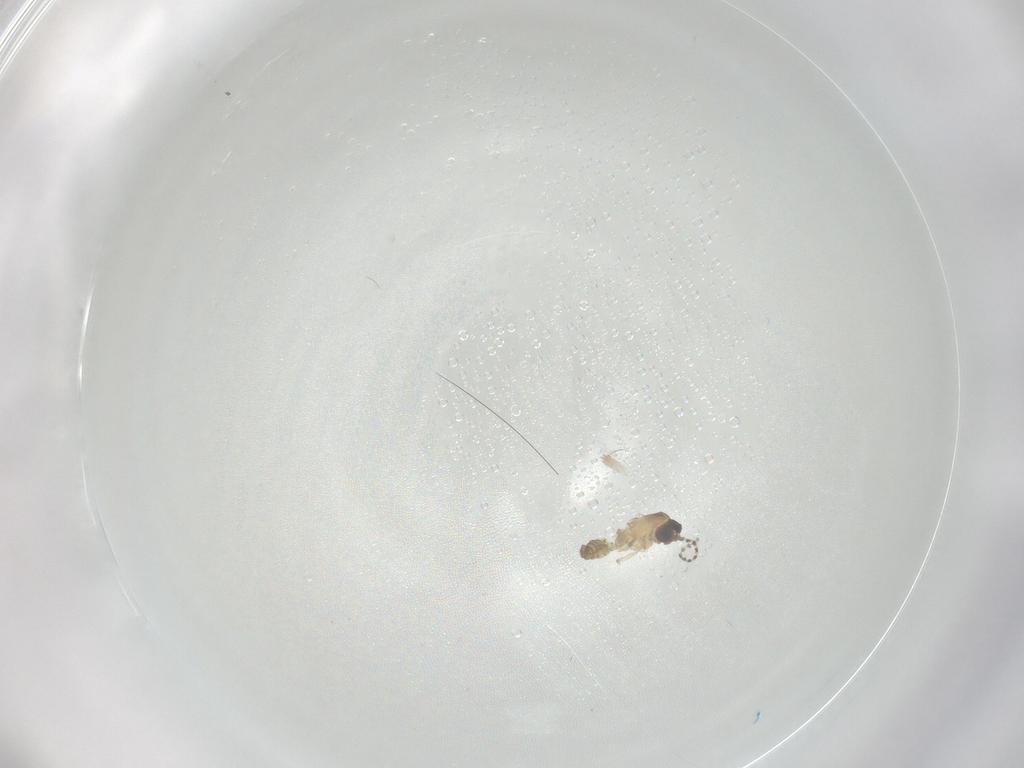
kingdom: Animalia
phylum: Arthropoda
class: Insecta
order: Diptera
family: Cecidomyiidae
